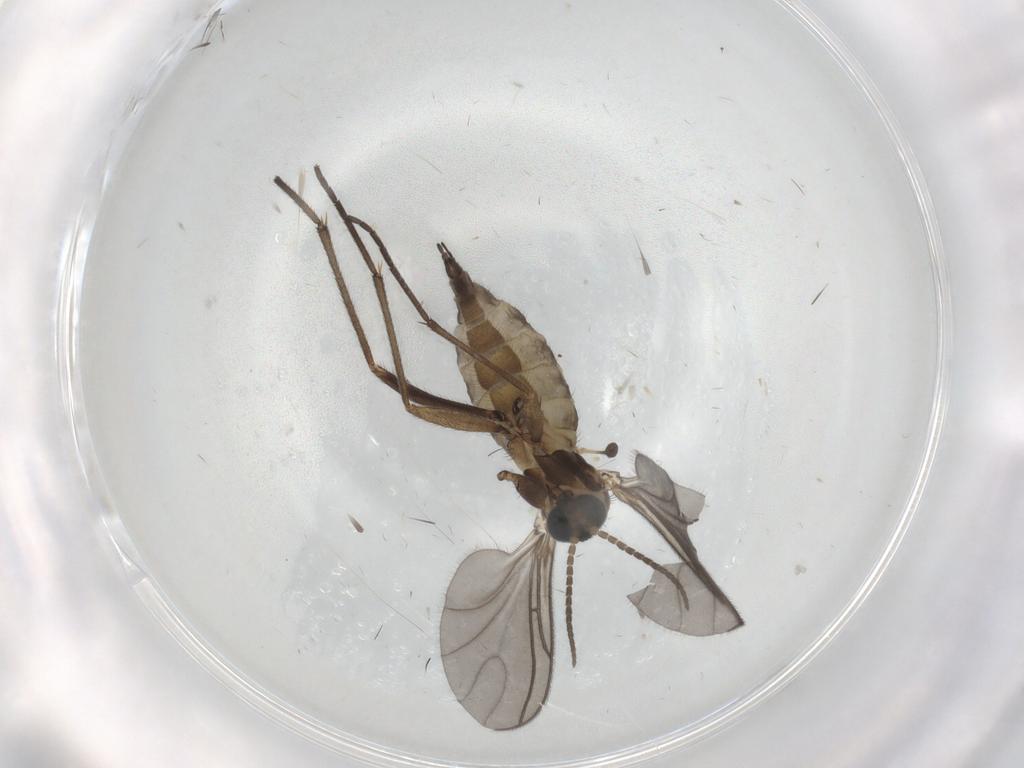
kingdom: Animalia
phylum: Arthropoda
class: Insecta
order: Diptera
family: Sciaridae
